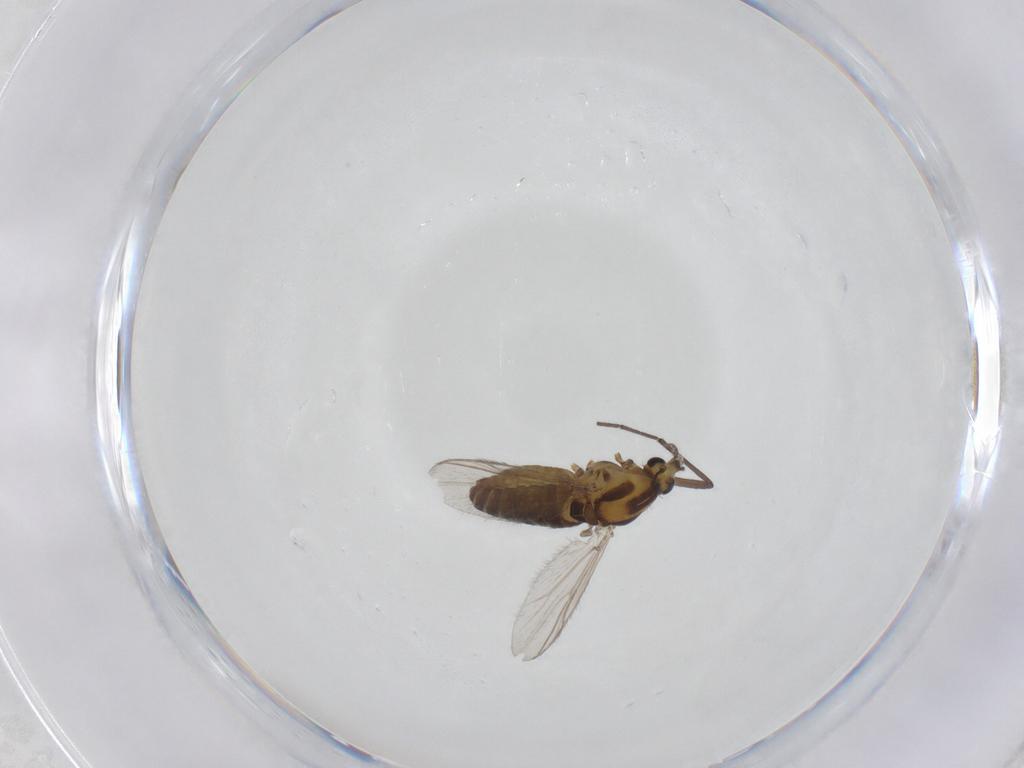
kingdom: Animalia
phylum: Arthropoda
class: Insecta
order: Diptera
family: Chironomidae
